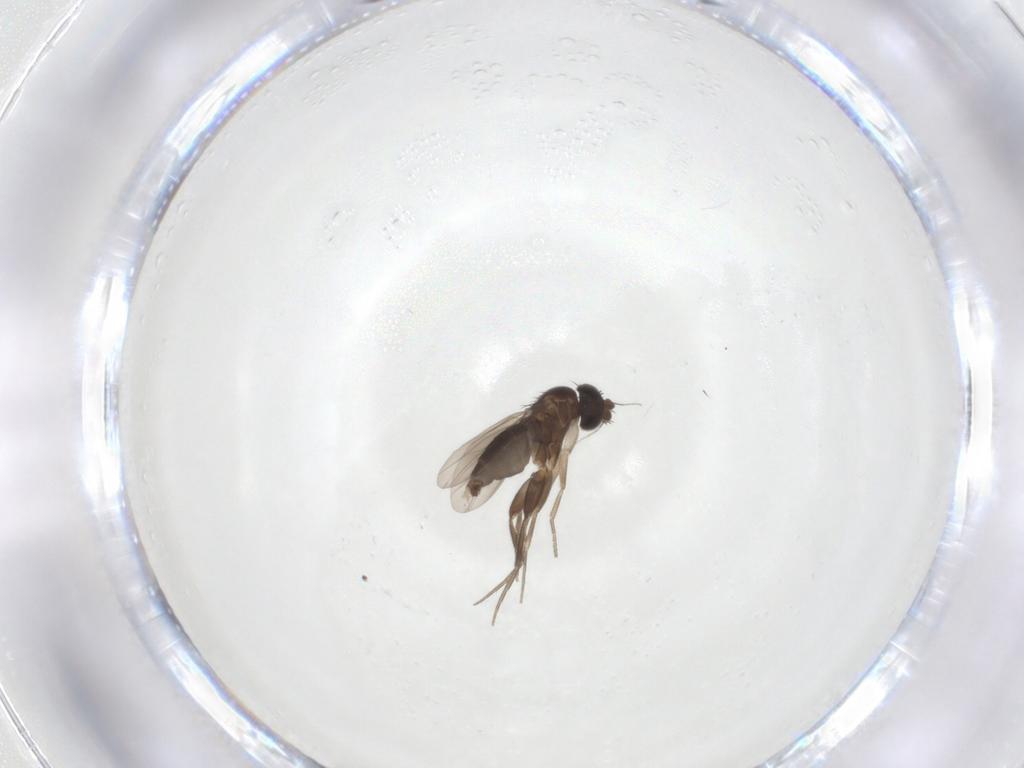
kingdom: Animalia
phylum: Arthropoda
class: Insecta
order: Diptera
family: Phoridae
